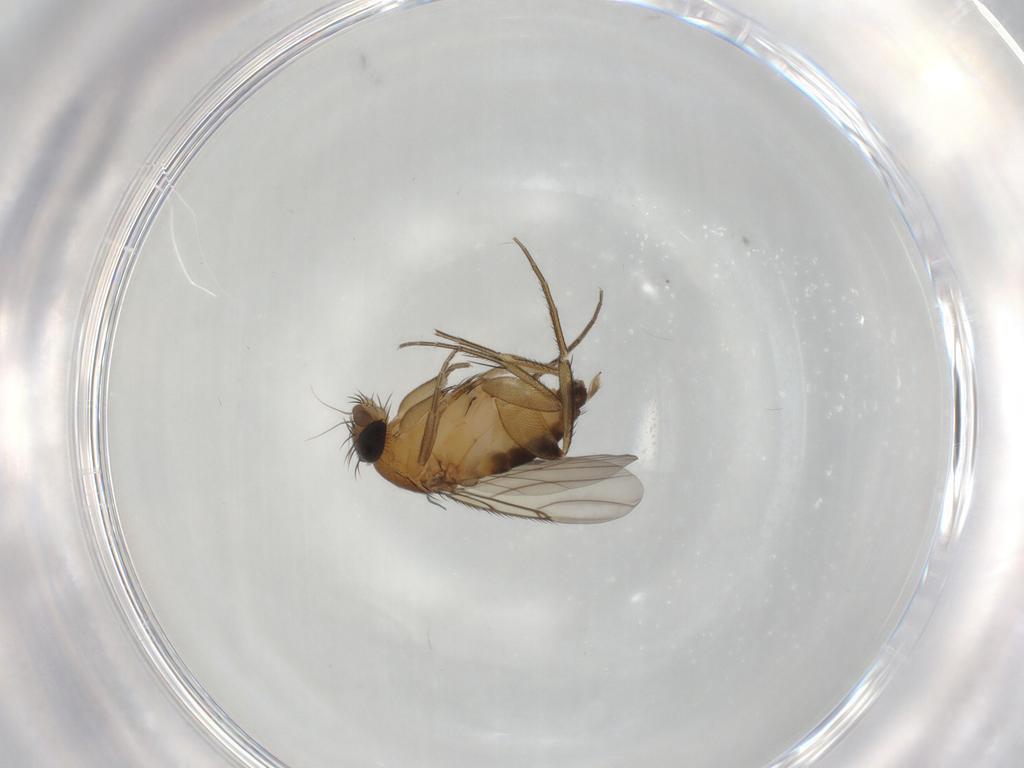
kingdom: Animalia
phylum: Arthropoda
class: Insecta
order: Diptera
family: Phoridae
